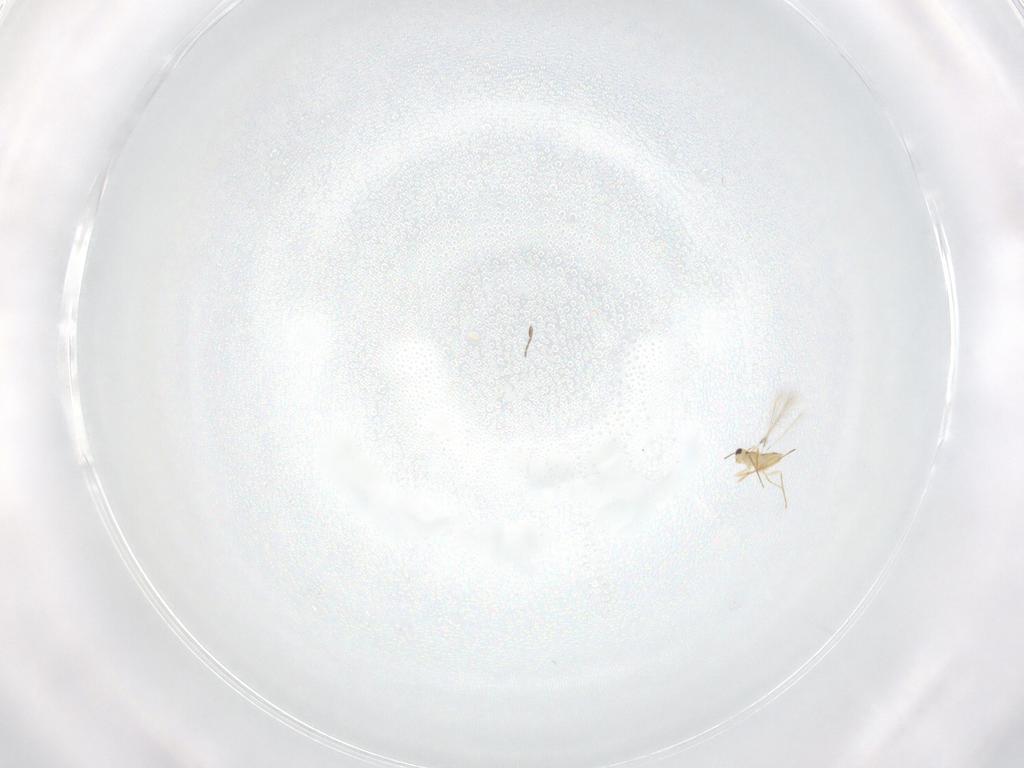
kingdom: Animalia
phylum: Arthropoda
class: Insecta
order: Hymenoptera
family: Mymaridae
